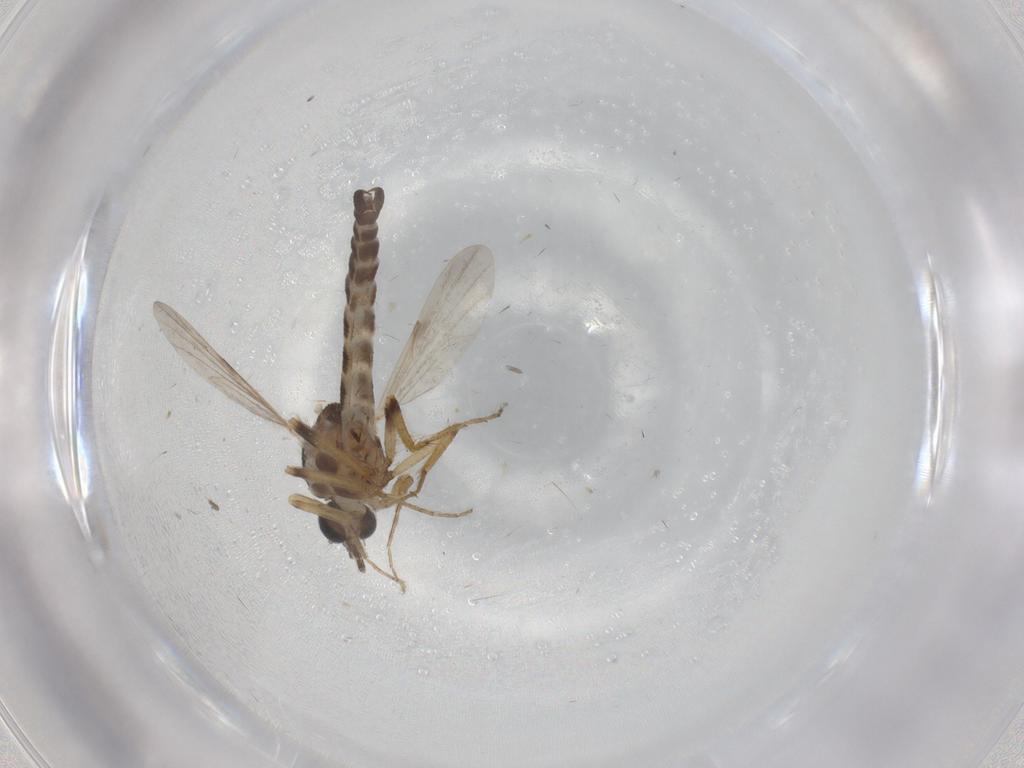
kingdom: Animalia
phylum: Arthropoda
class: Insecta
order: Diptera
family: Ceratopogonidae
